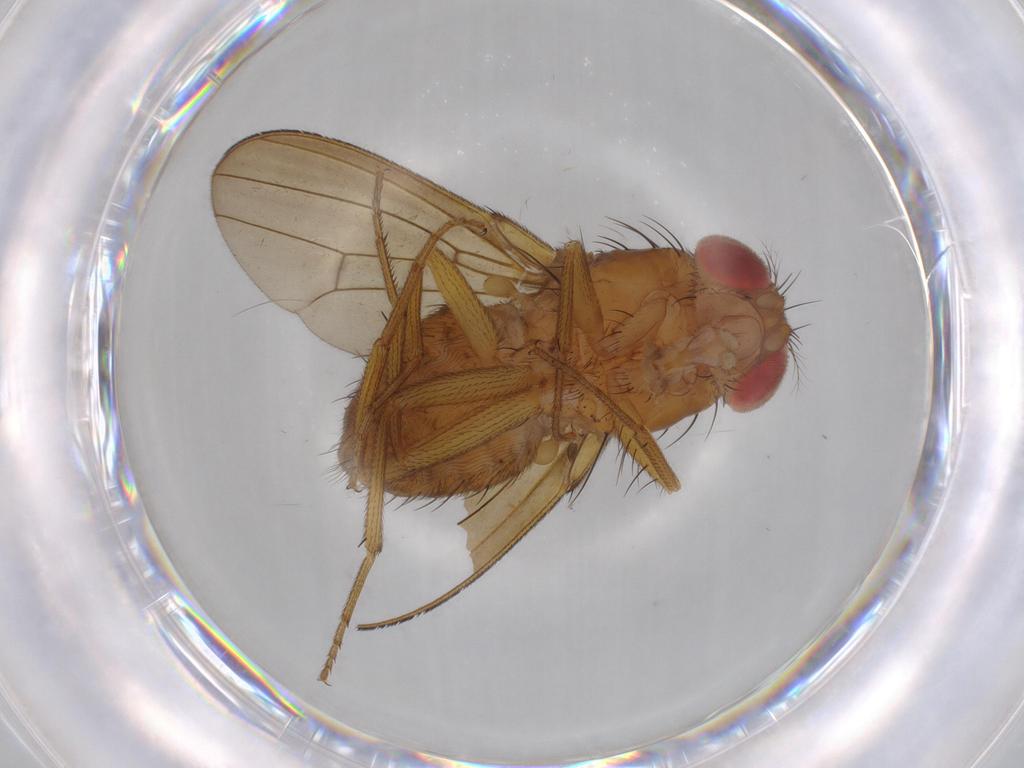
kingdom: Animalia
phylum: Arthropoda
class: Insecta
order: Diptera
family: Drosophilidae
